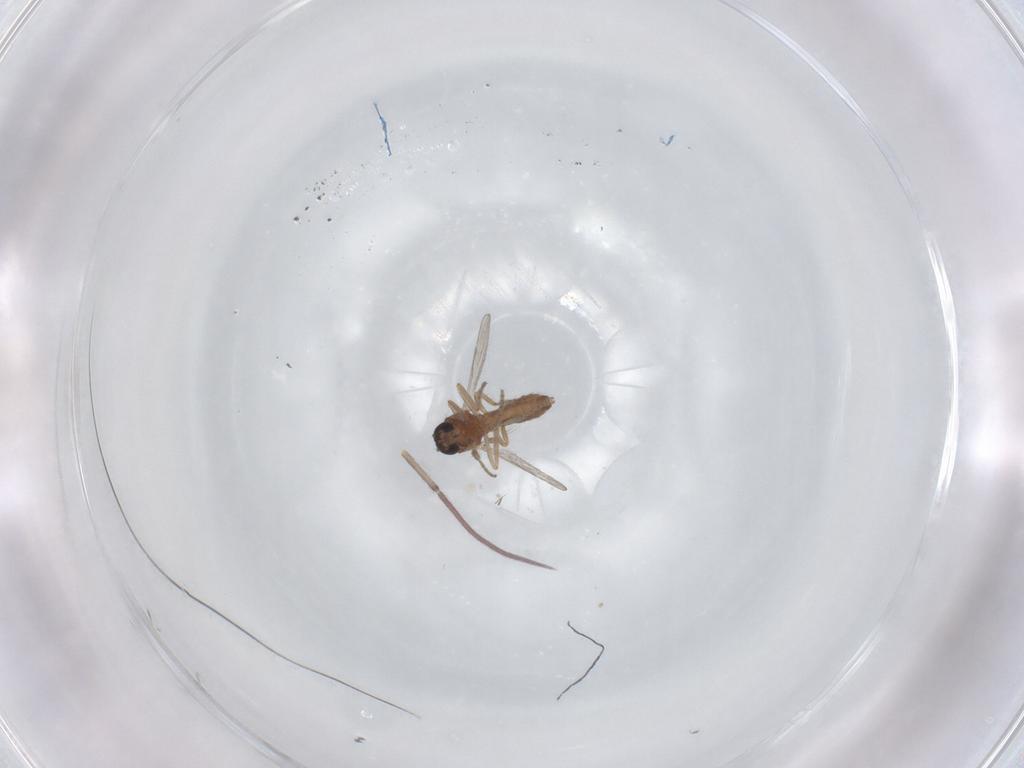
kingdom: Animalia
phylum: Arthropoda
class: Insecta
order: Diptera
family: Ceratopogonidae
